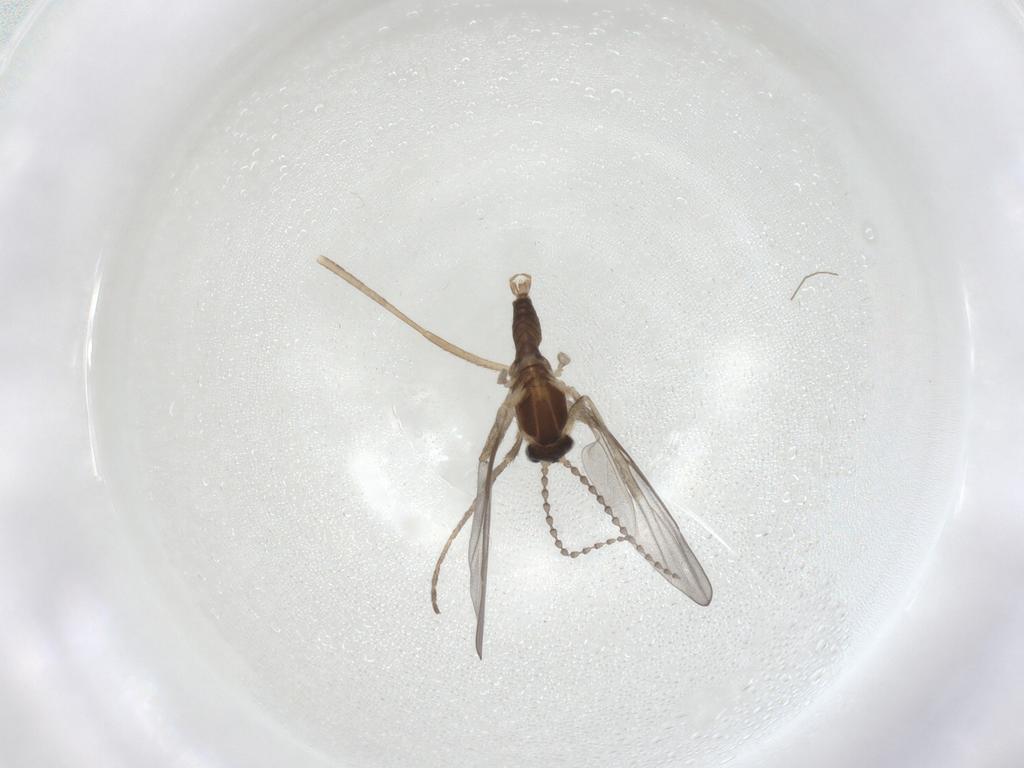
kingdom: Animalia
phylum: Arthropoda
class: Insecta
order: Diptera
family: Cecidomyiidae
